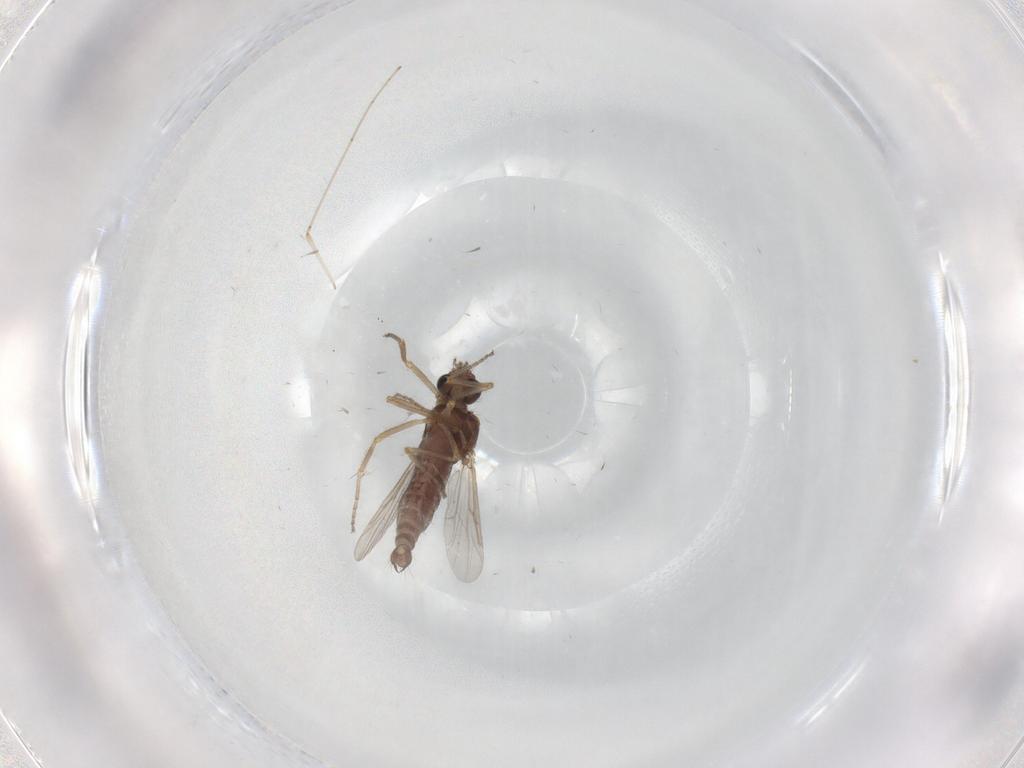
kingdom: Animalia
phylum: Arthropoda
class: Insecta
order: Diptera
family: Ceratopogonidae
